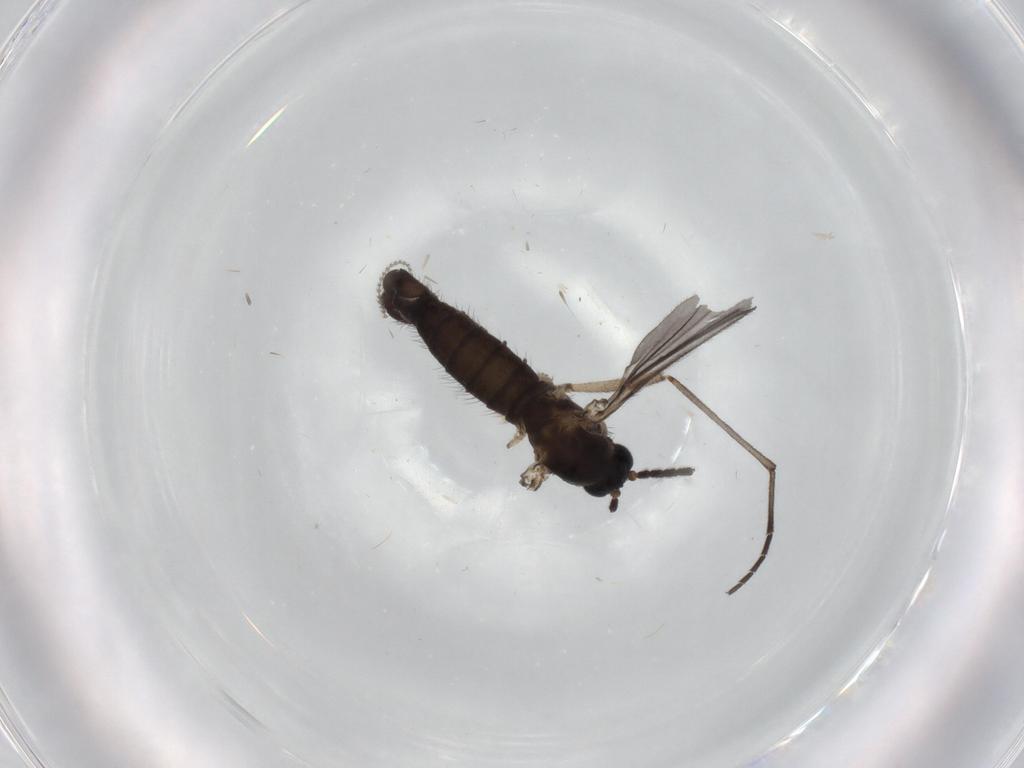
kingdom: Animalia
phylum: Arthropoda
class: Insecta
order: Diptera
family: Sciaridae
